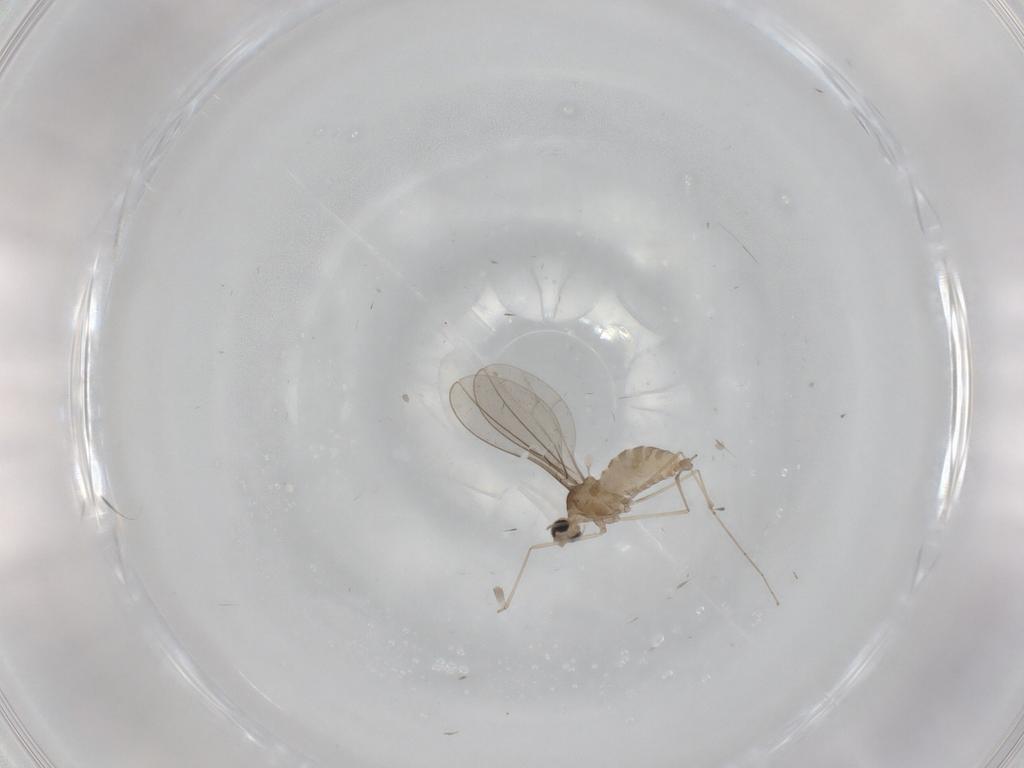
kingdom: Animalia
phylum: Arthropoda
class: Insecta
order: Diptera
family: Cecidomyiidae
